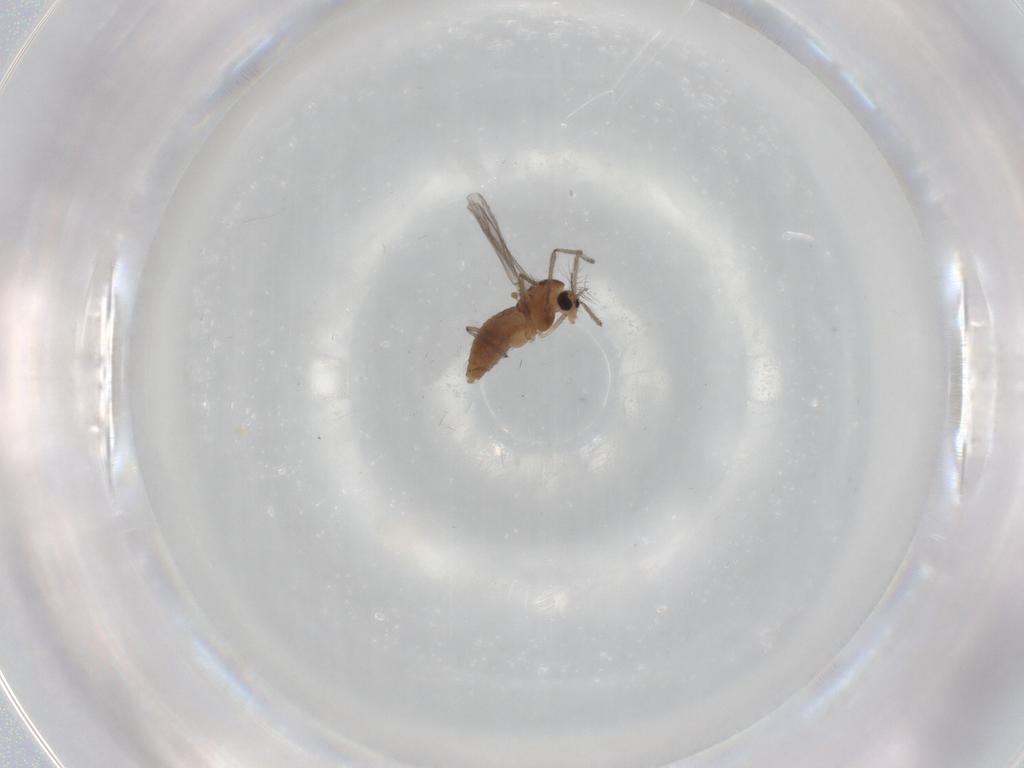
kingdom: Animalia
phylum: Arthropoda
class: Insecta
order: Diptera
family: Chironomidae
